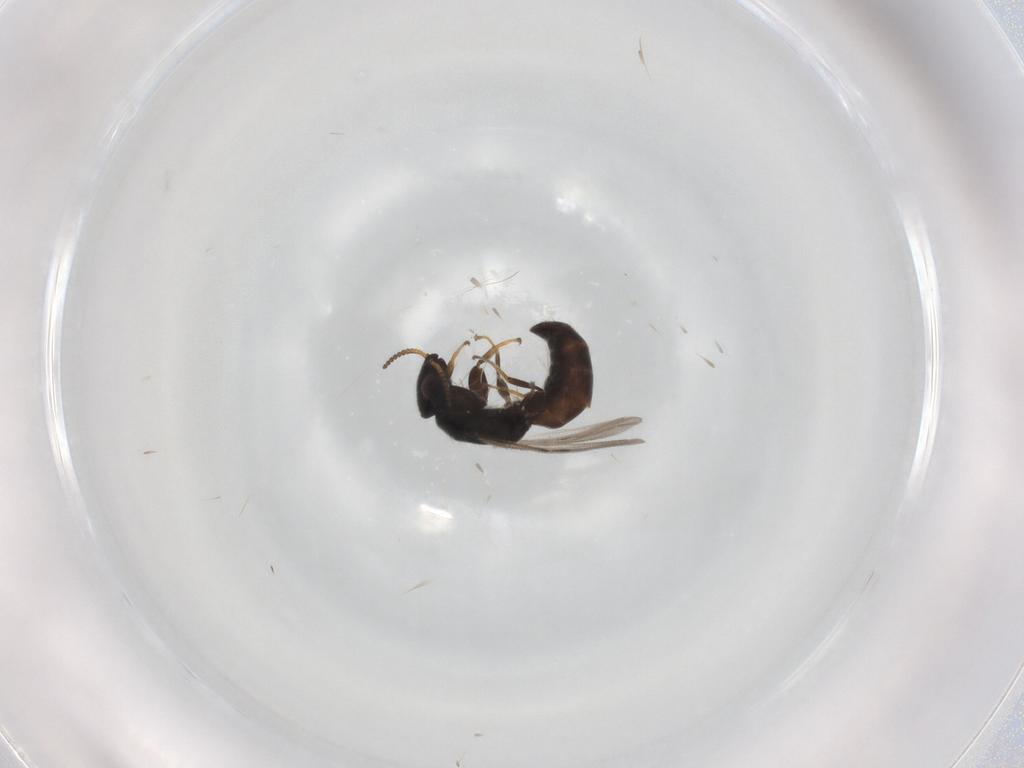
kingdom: Animalia
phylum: Arthropoda
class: Insecta
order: Hymenoptera
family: Bethylidae
